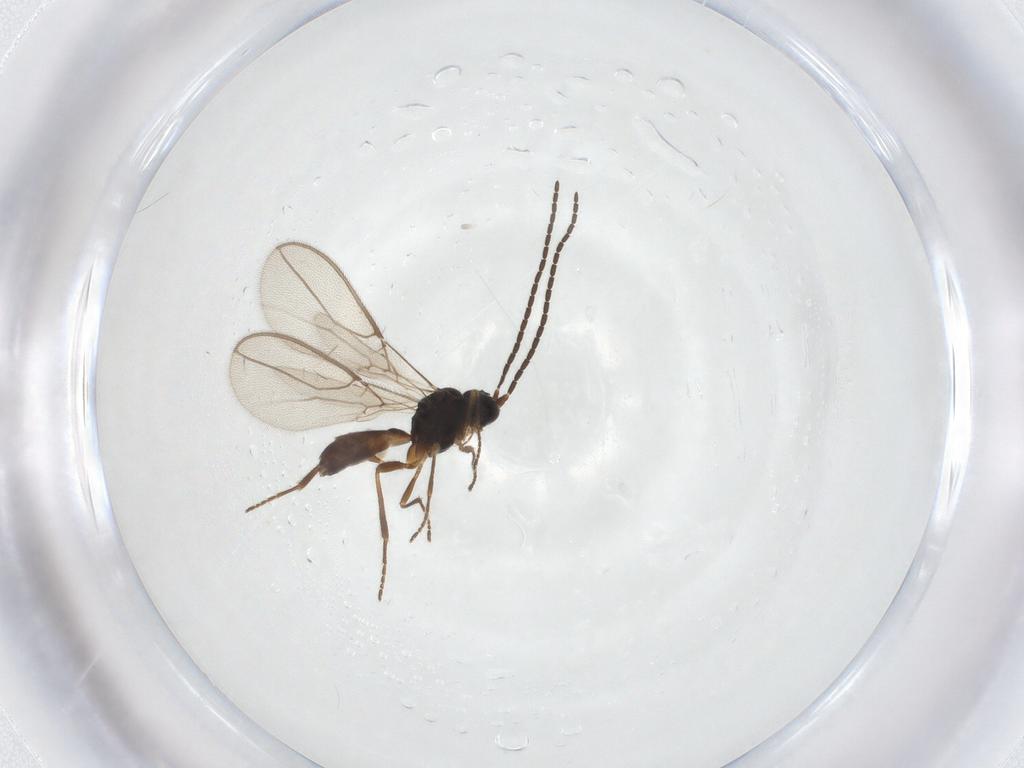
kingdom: Animalia
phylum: Arthropoda
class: Insecta
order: Hymenoptera
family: Braconidae
